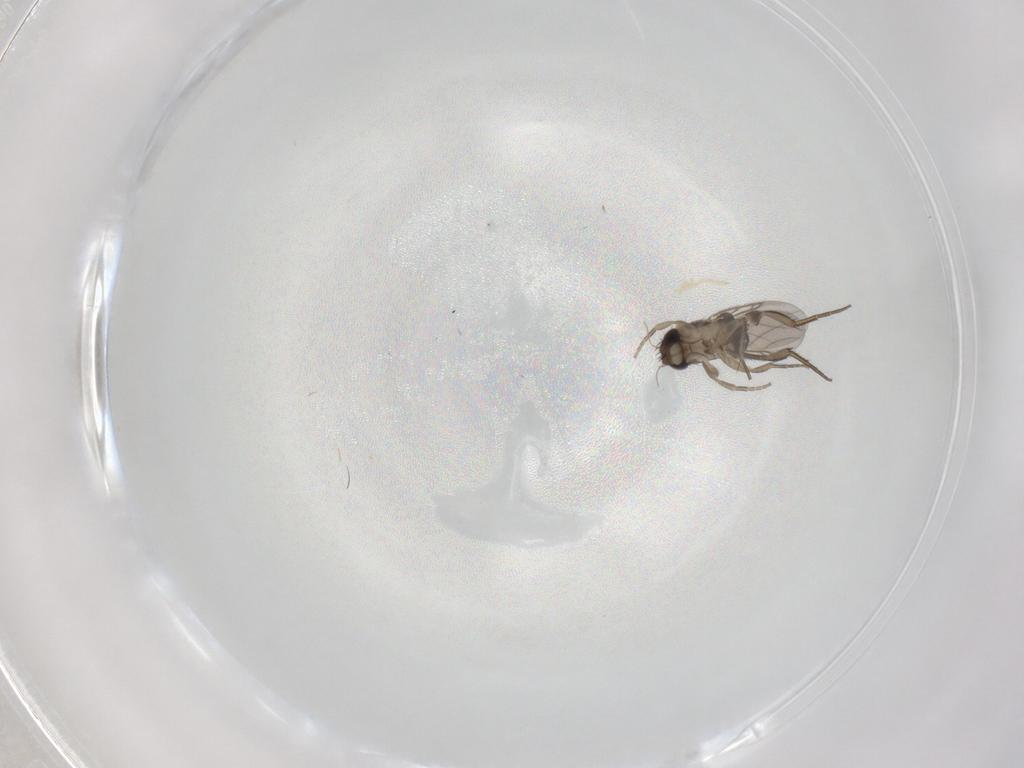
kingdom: Animalia
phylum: Arthropoda
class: Insecta
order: Diptera
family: Phoridae
